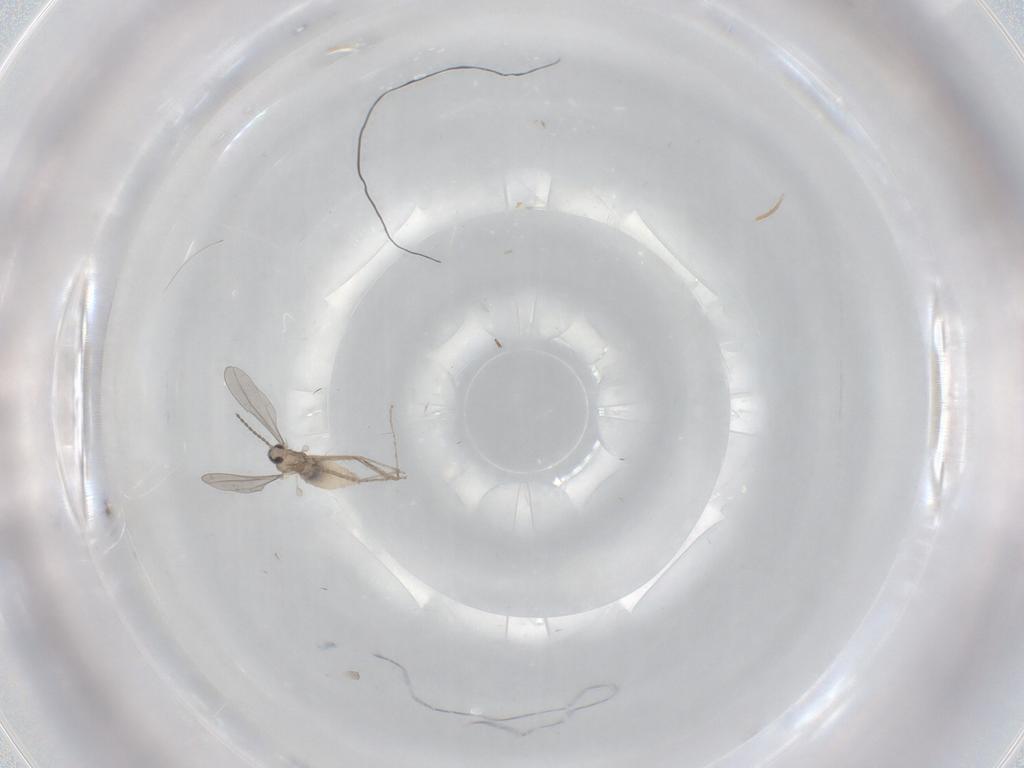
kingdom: Animalia
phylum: Arthropoda
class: Insecta
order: Diptera
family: Cecidomyiidae
